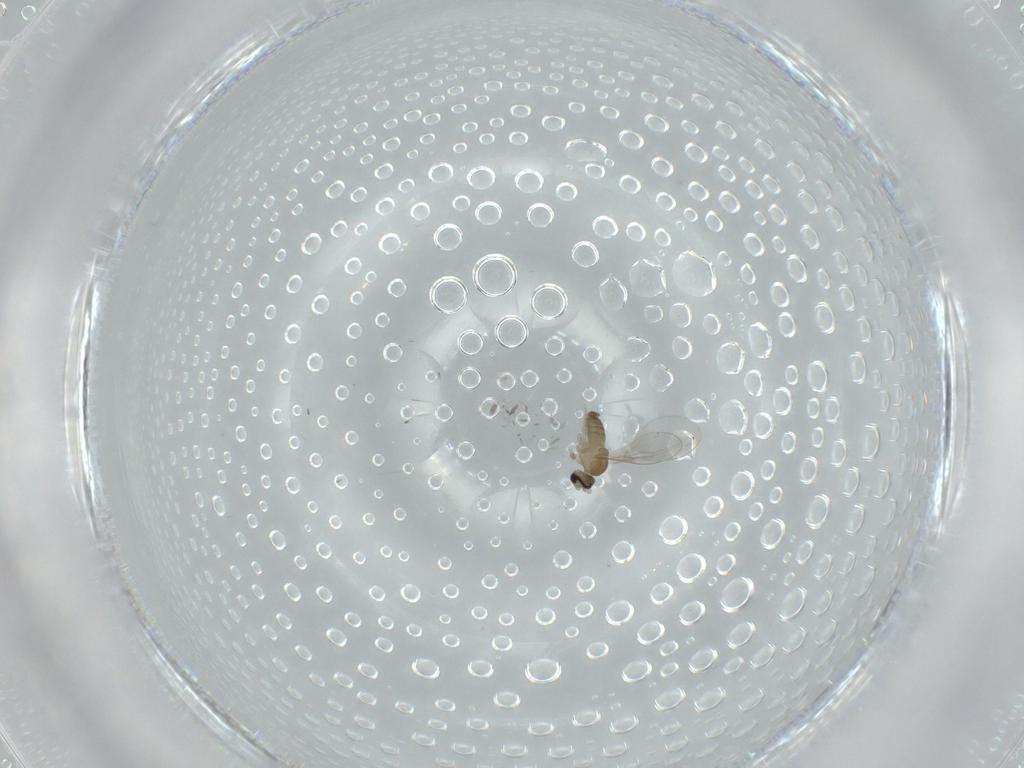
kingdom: Animalia
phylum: Arthropoda
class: Insecta
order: Diptera
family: Cecidomyiidae
